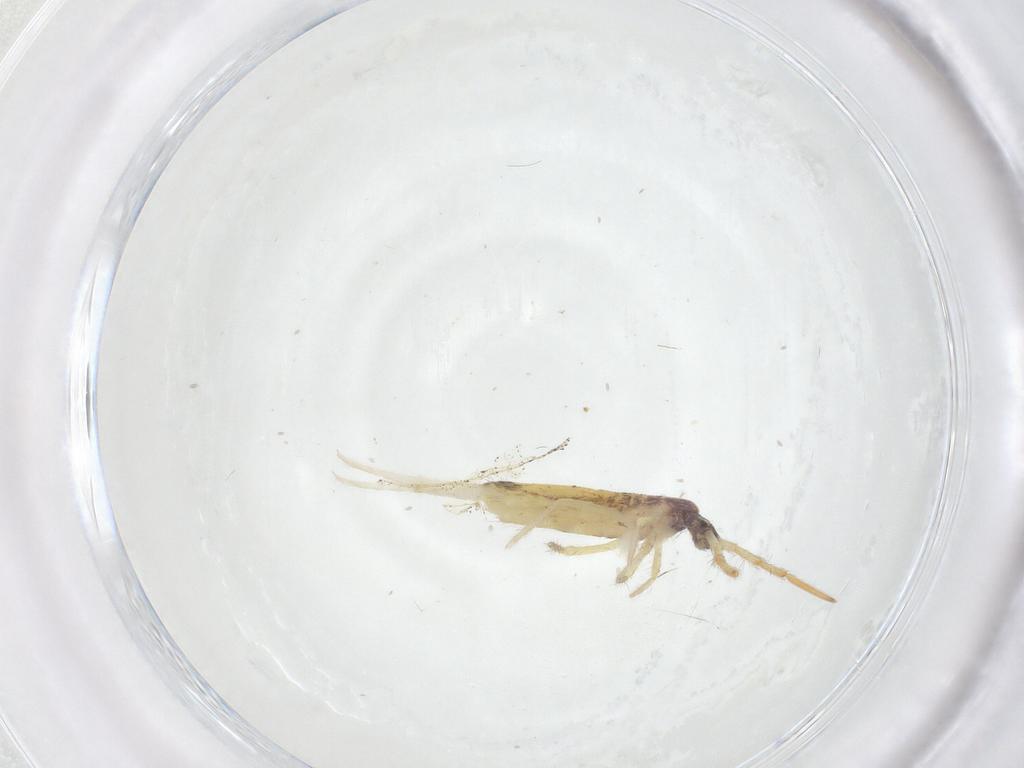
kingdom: Animalia
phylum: Arthropoda
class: Collembola
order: Entomobryomorpha
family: Entomobryidae
